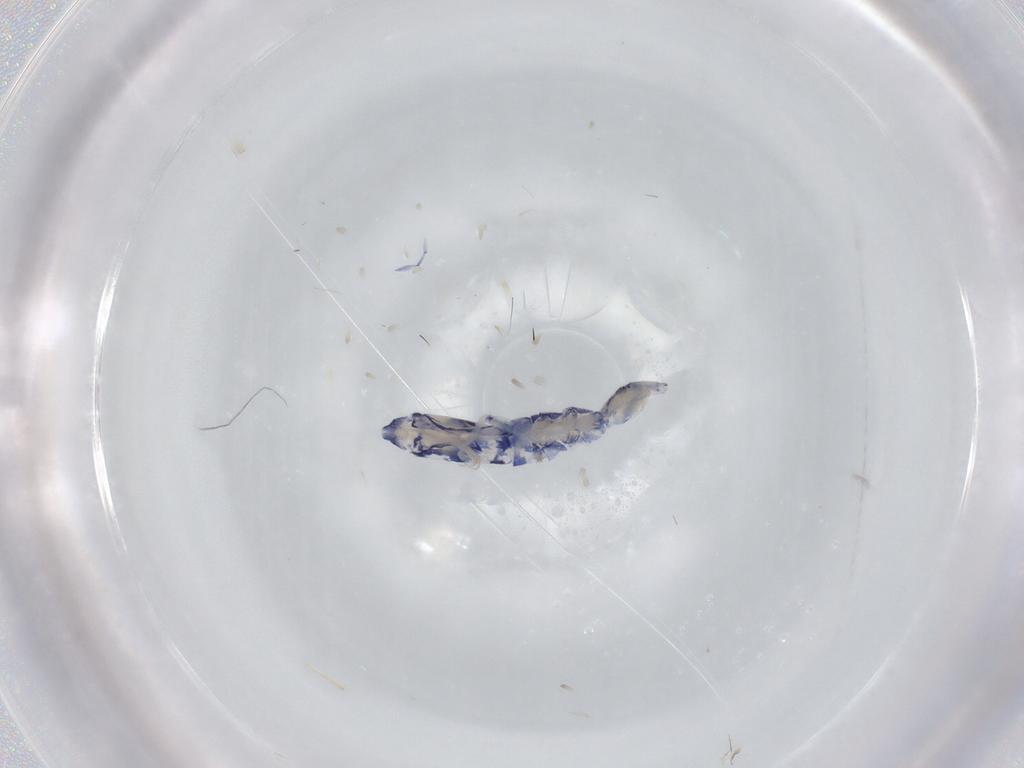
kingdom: Animalia
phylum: Arthropoda
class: Collembola
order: Entomobryomorpha
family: Entomobryidae
